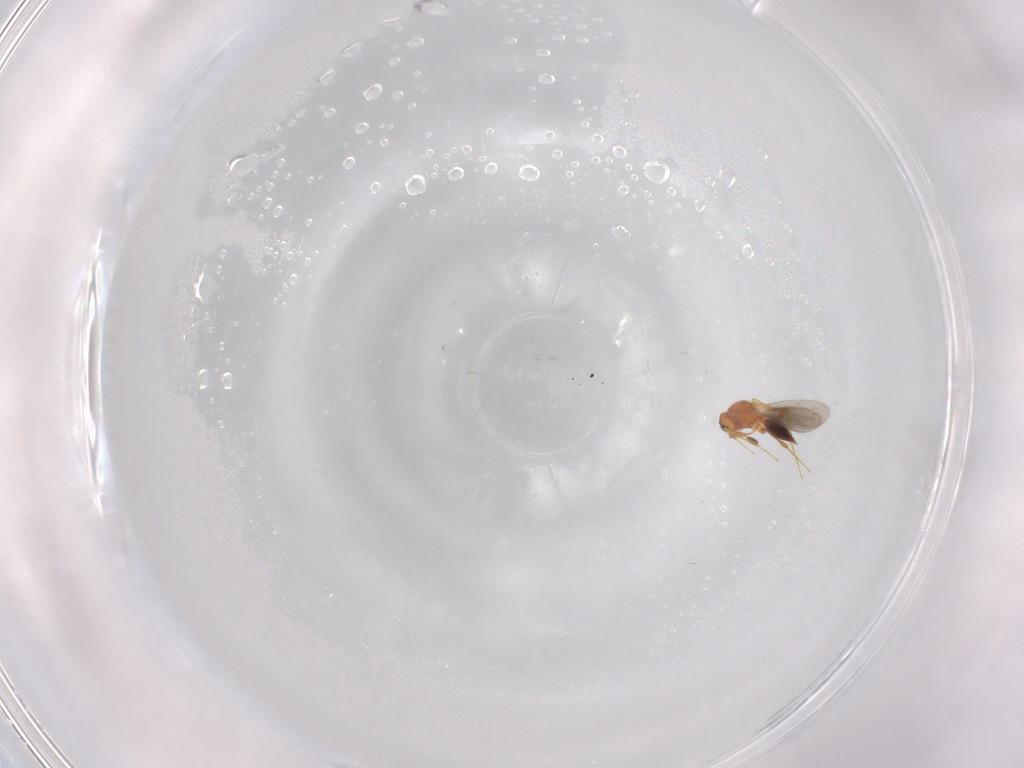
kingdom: Animalia
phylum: Arthropoda
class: Insecta
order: Hymenoptera
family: Platygastridae
